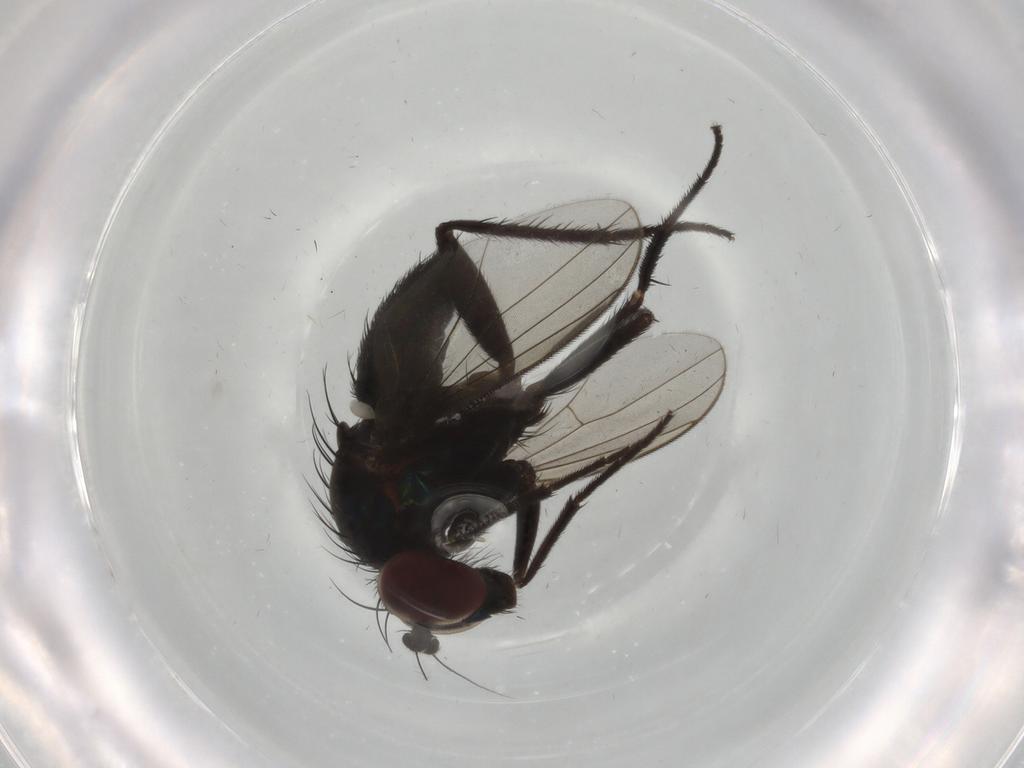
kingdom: Animalia
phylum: Arthropoda
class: Insecta
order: Diptera
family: Dolichopodidae
